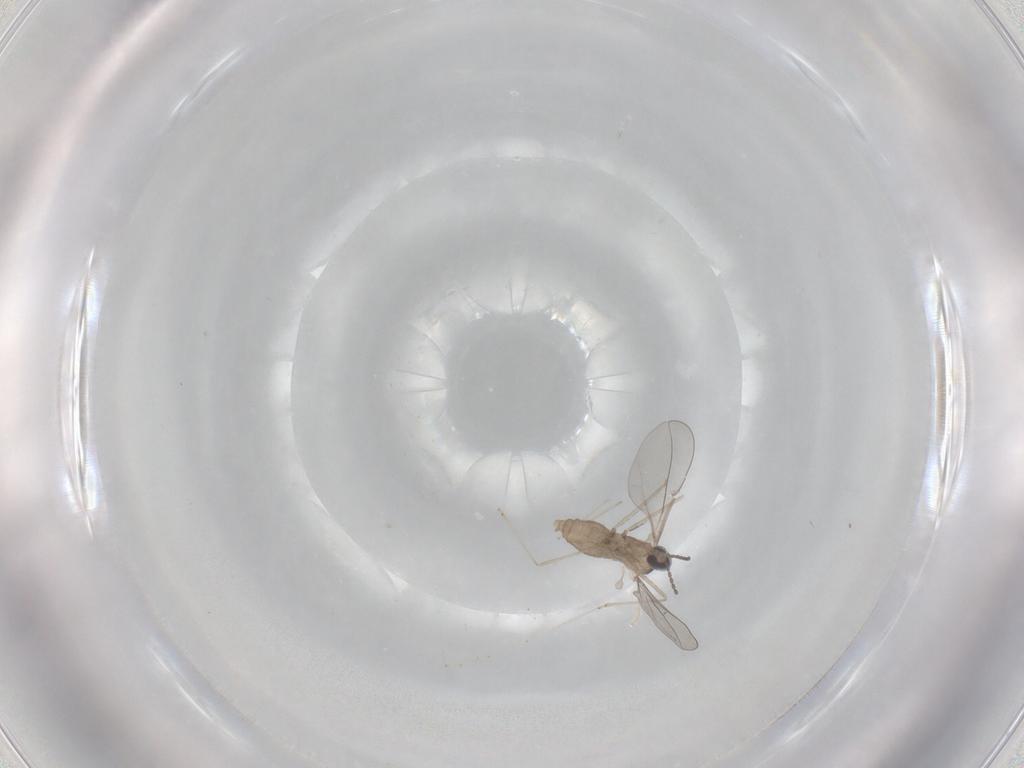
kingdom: Animalia
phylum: Arthropoda
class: Insecta
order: Diptera
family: Cecidomyiidae
